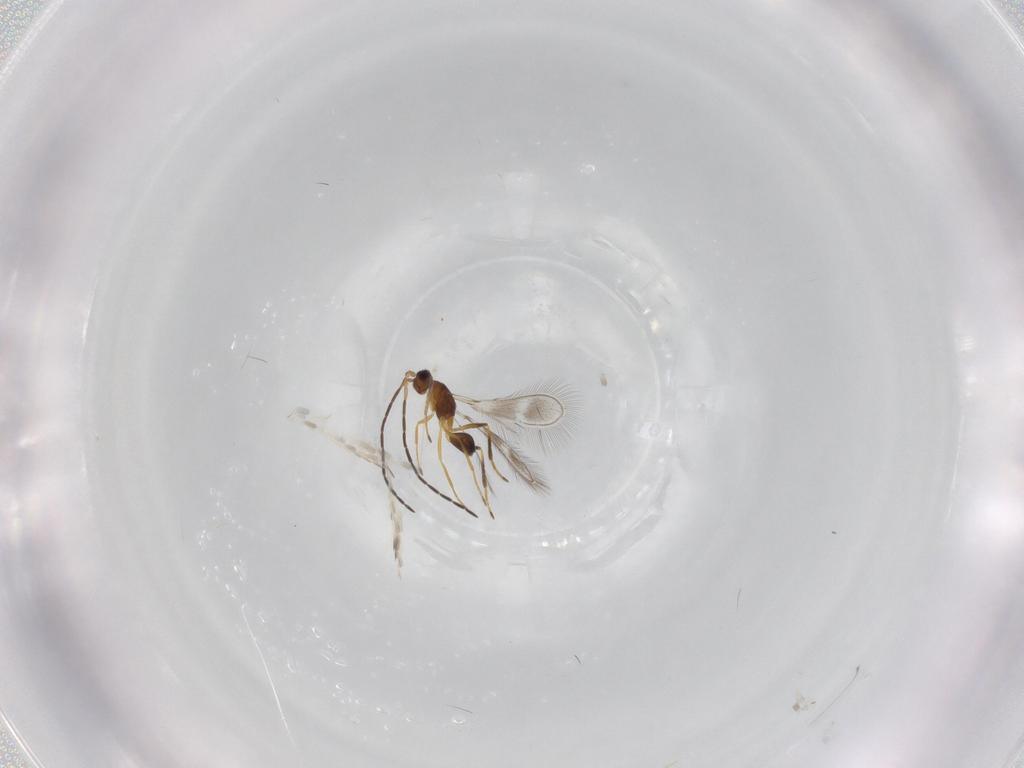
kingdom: Animalia
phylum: Arthropoda
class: Insecta
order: Hymenoptera
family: Mymaridae
